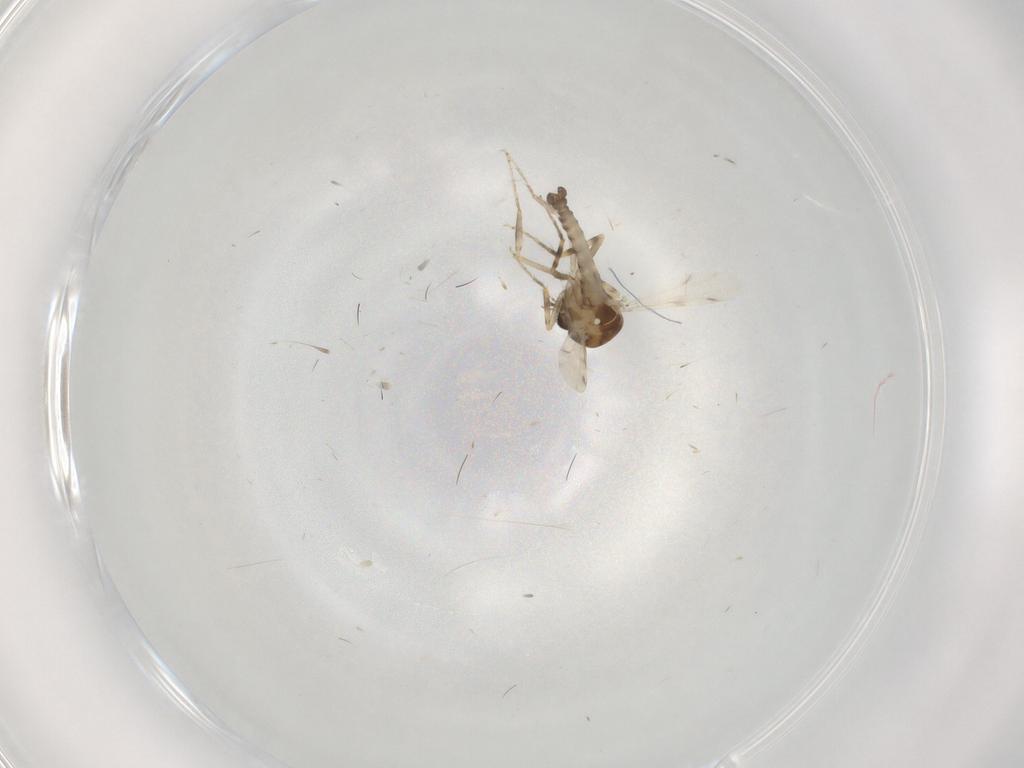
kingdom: Animalia
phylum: Arthropoda
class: Insecta
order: Diptera
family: Ceratopogonidae
